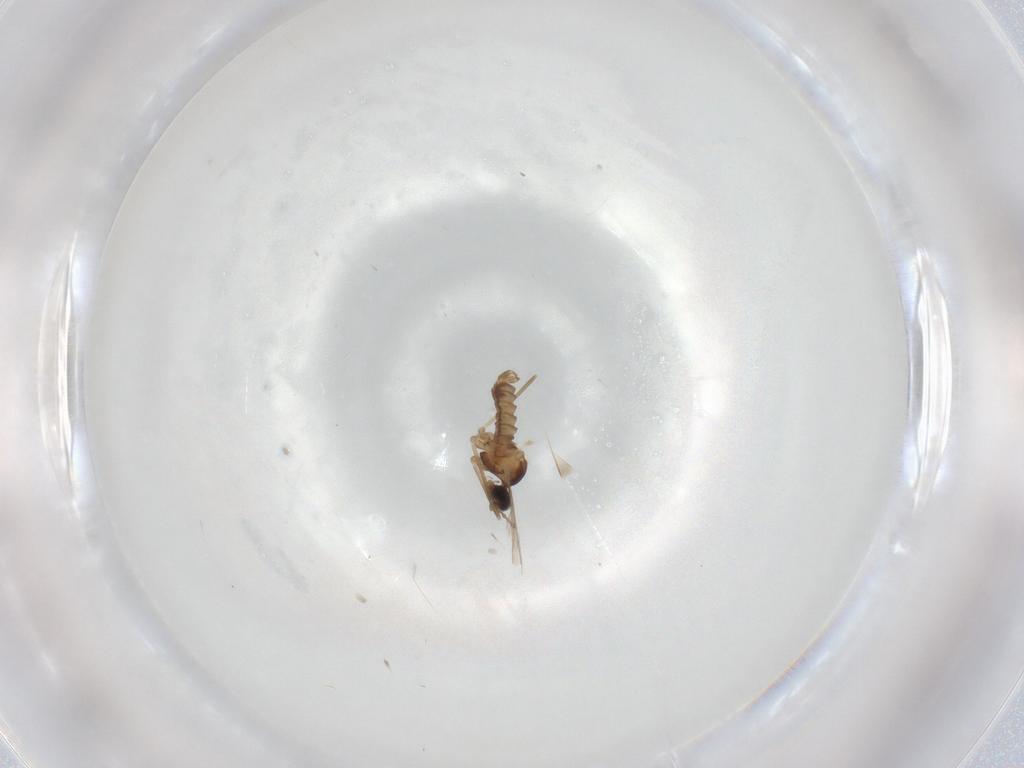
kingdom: Animalia
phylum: Arthropoda
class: Insecta
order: Diptera
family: Cecidomyiidae
